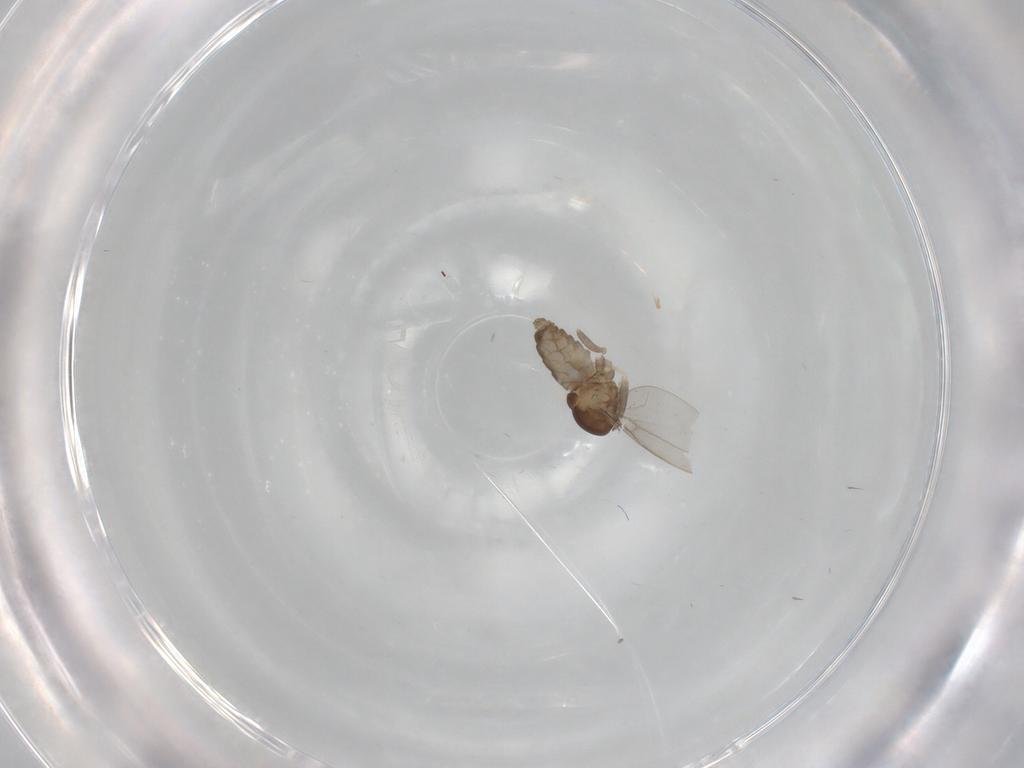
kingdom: Animalia
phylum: Arthropoda
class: Insecta
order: Diptera
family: Cecidomyiidae
